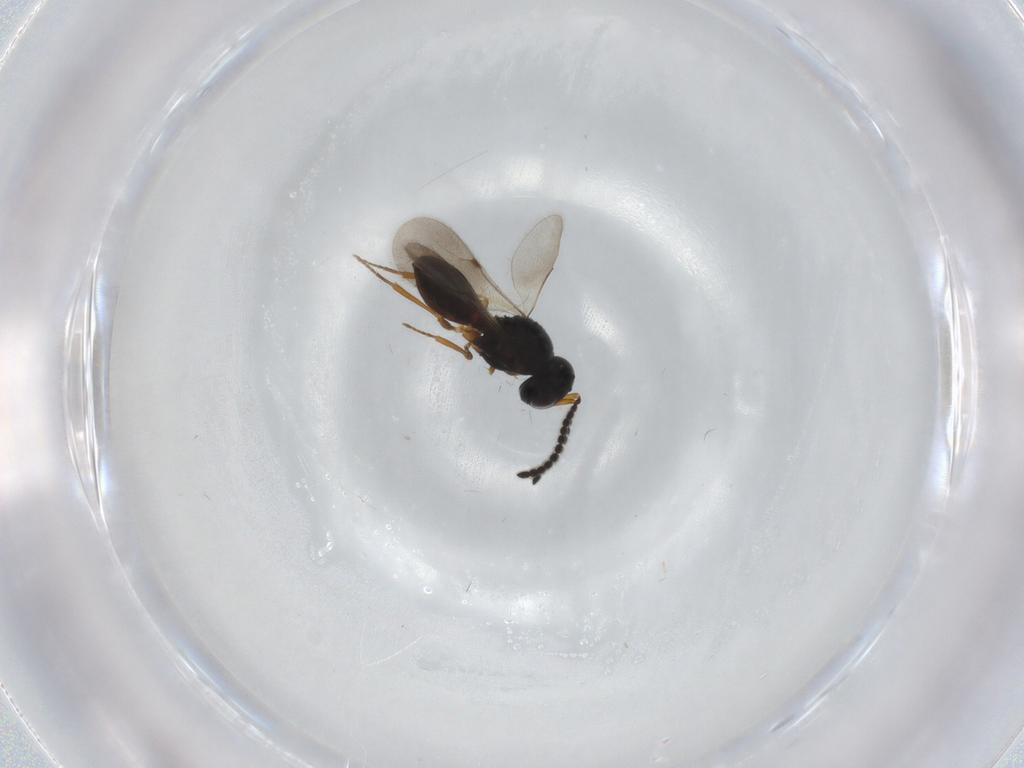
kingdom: Animalia
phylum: Arthropoda
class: Insecta
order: Hymenoptera
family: Scelionidae
